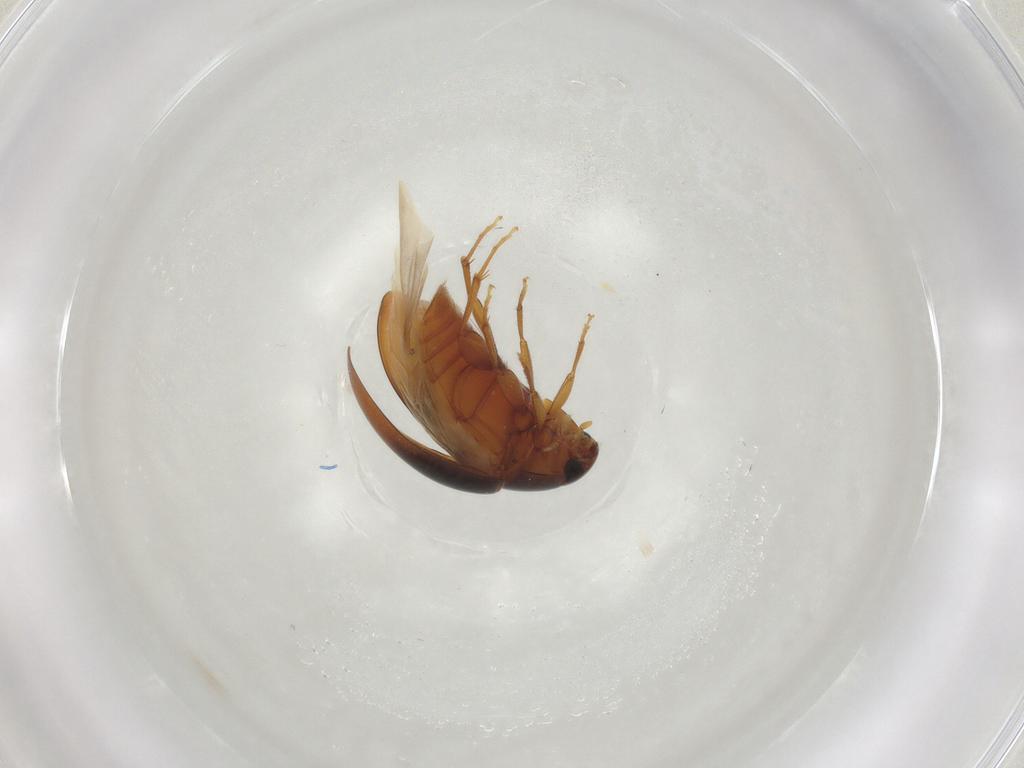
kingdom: Animalia
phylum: Arthropoda
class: Insecta
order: Coleoptera
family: Phalacridae
